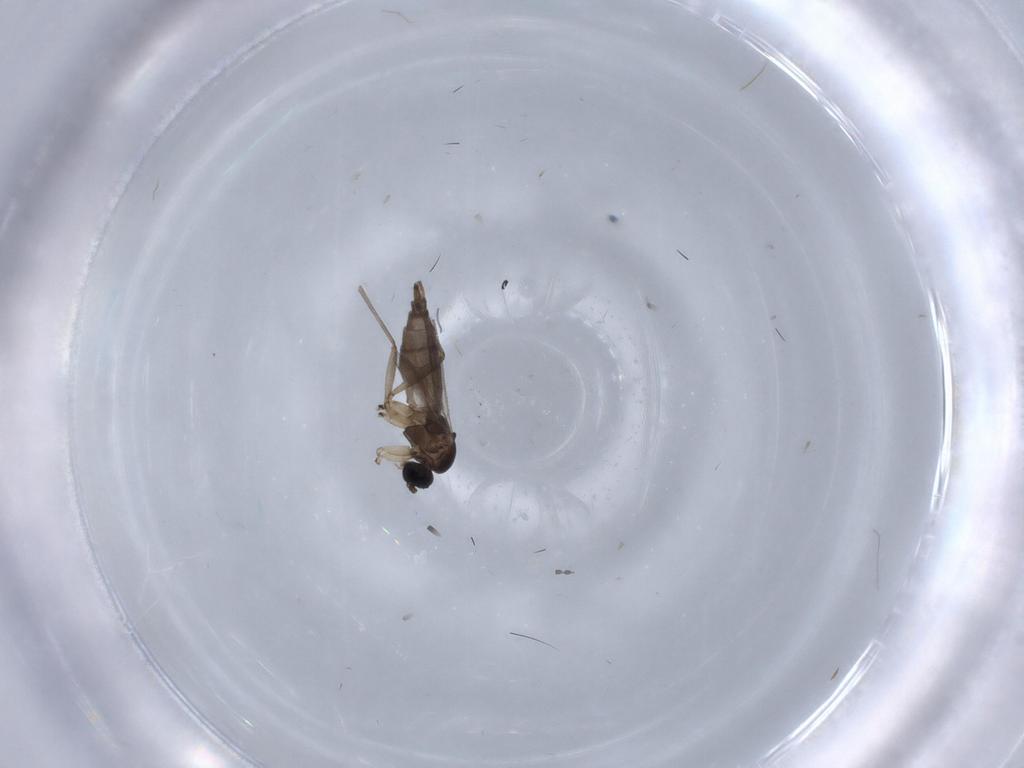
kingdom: Animalia
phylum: Arthropoda
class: Insecta
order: Diptera
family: Sciaridae
